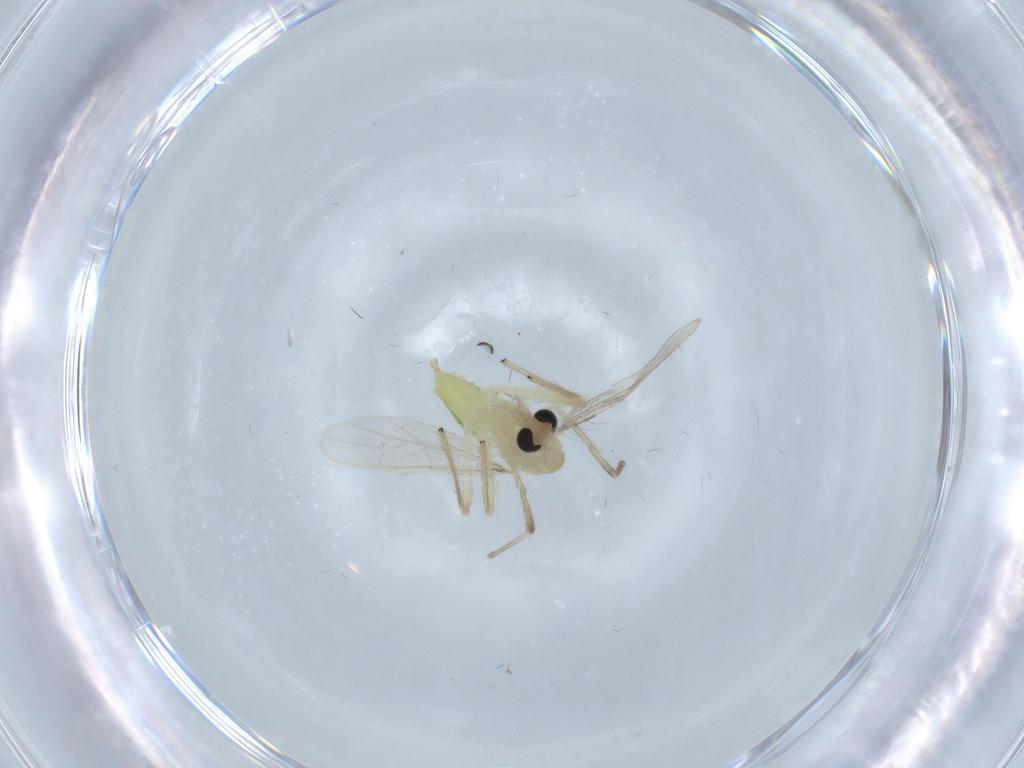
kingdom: Animalia
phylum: Arthropoda
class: Insecta
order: Diptera
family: Chironomidae
